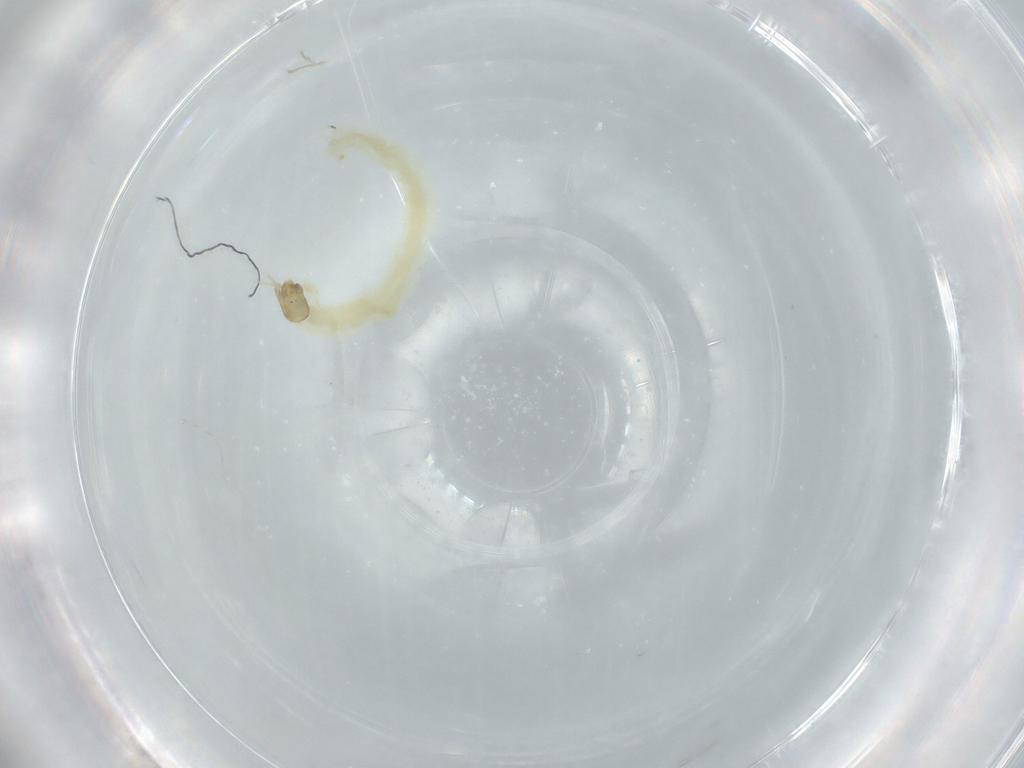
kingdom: Animalia
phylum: Arthropoda
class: Insecta
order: Diptera
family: Chironomidae
